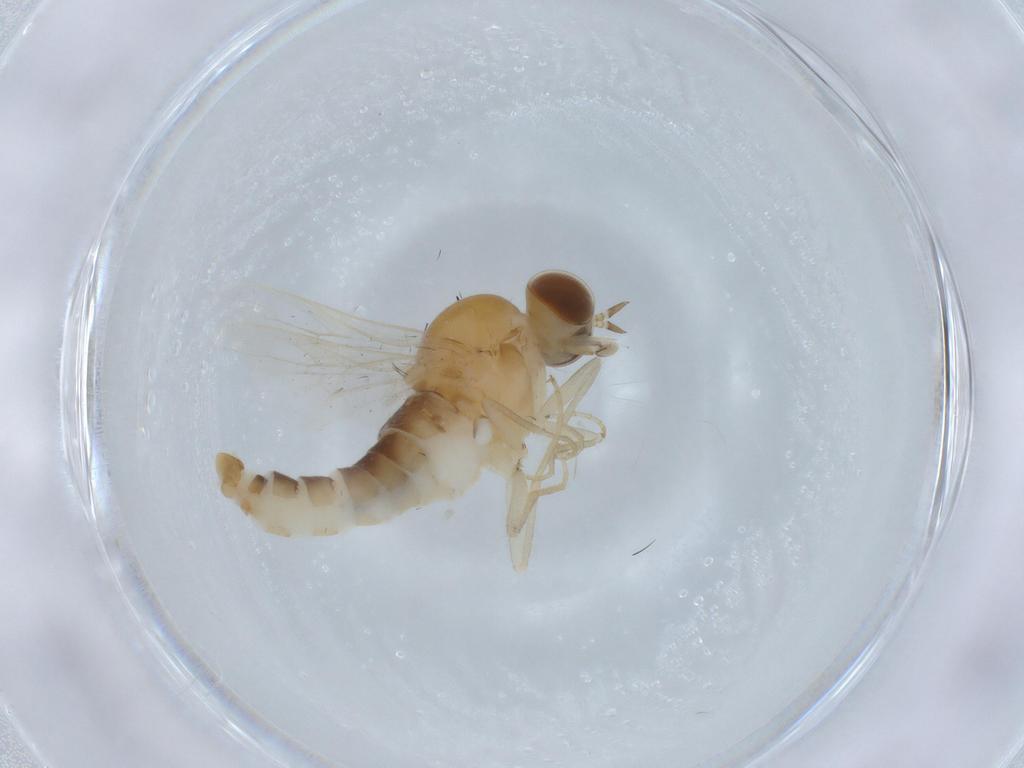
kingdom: Animalia
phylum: Arthropoda
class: Insecta
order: Diptera
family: Empididae
